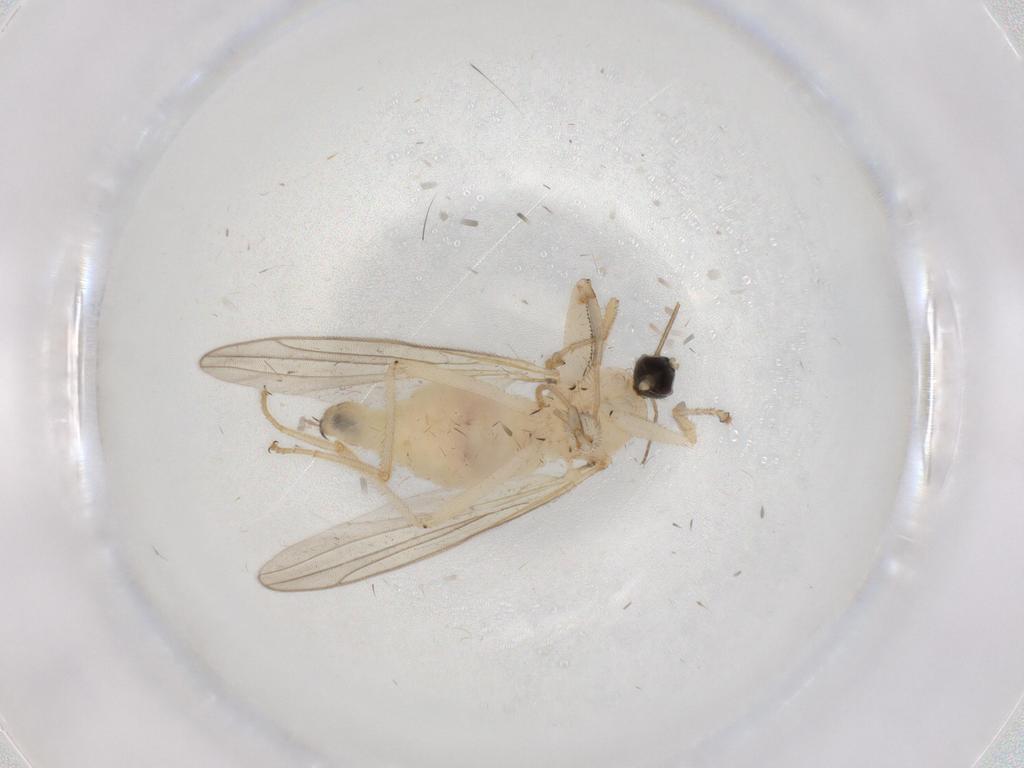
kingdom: Animalia
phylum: Arthropoda
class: Insecta
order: Diptera
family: Hybotidae
